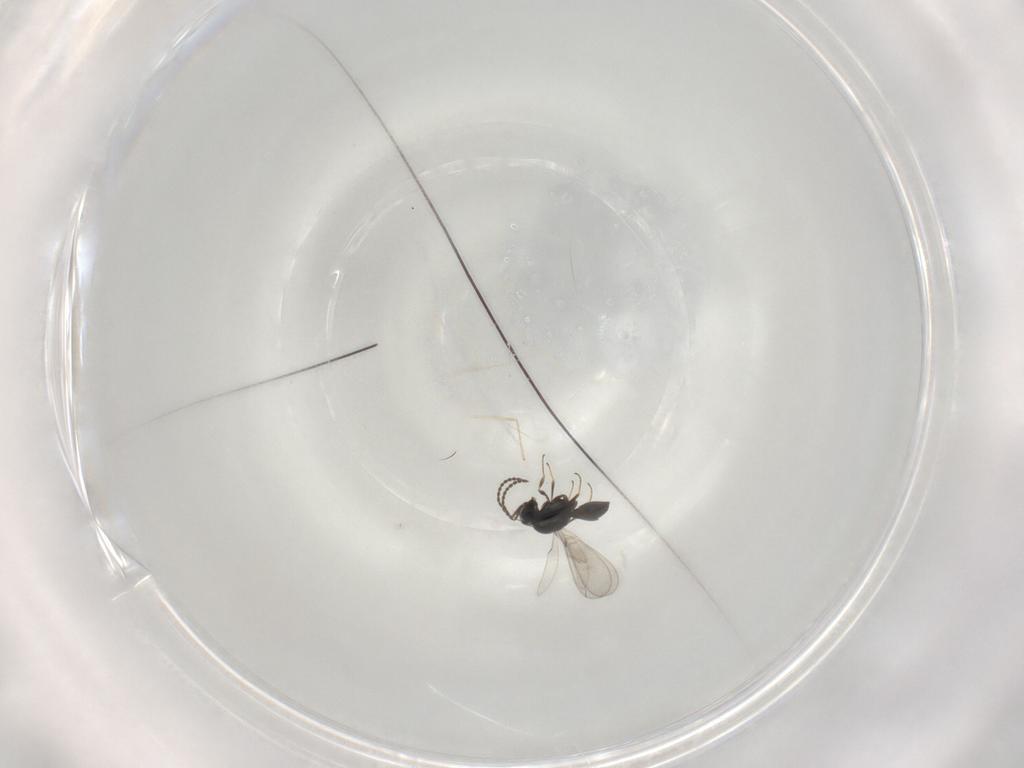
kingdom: Animalia
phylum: Arthropoda
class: Insecta
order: Hymenoptera
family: Scelionidae
